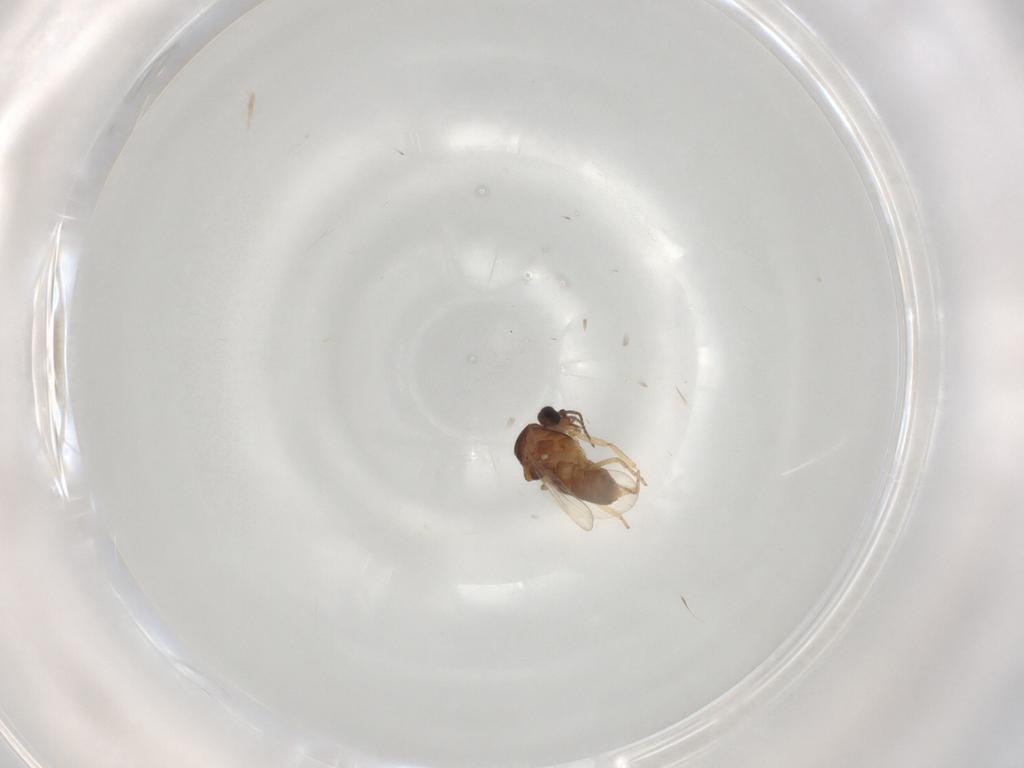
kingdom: Animalia
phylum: Arthropoda
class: Insecta
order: Diptera
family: Ceratopogonidae
